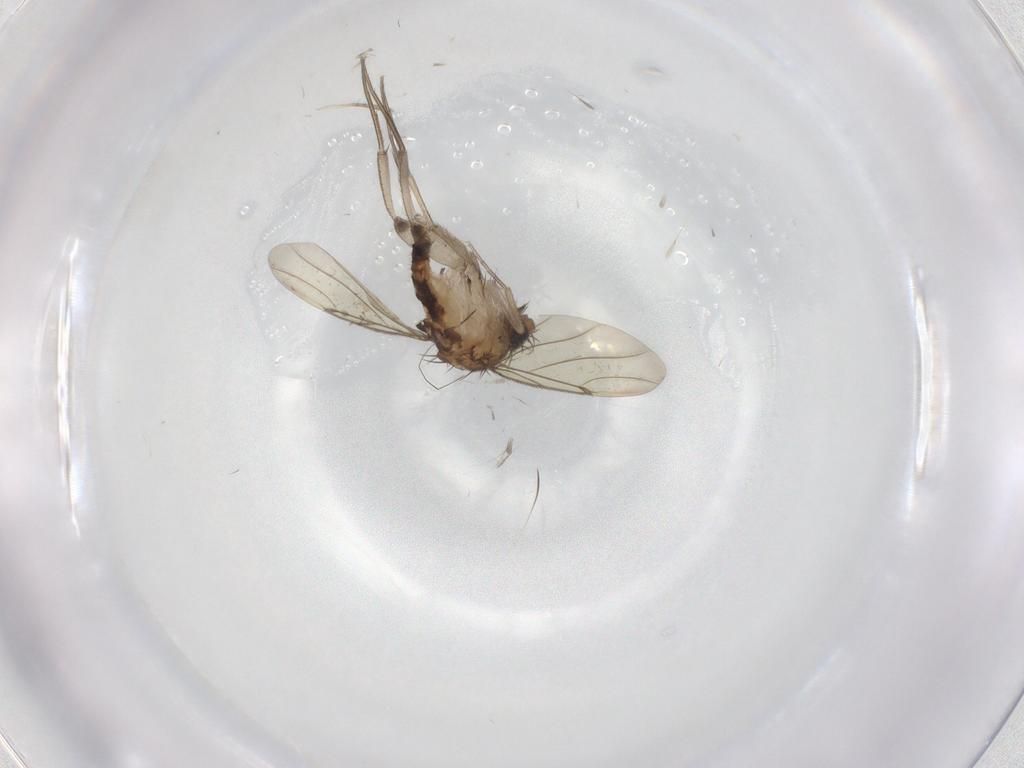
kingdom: Animalia
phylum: Arthropoda
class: Insecta
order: Diptera
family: Phoridae
